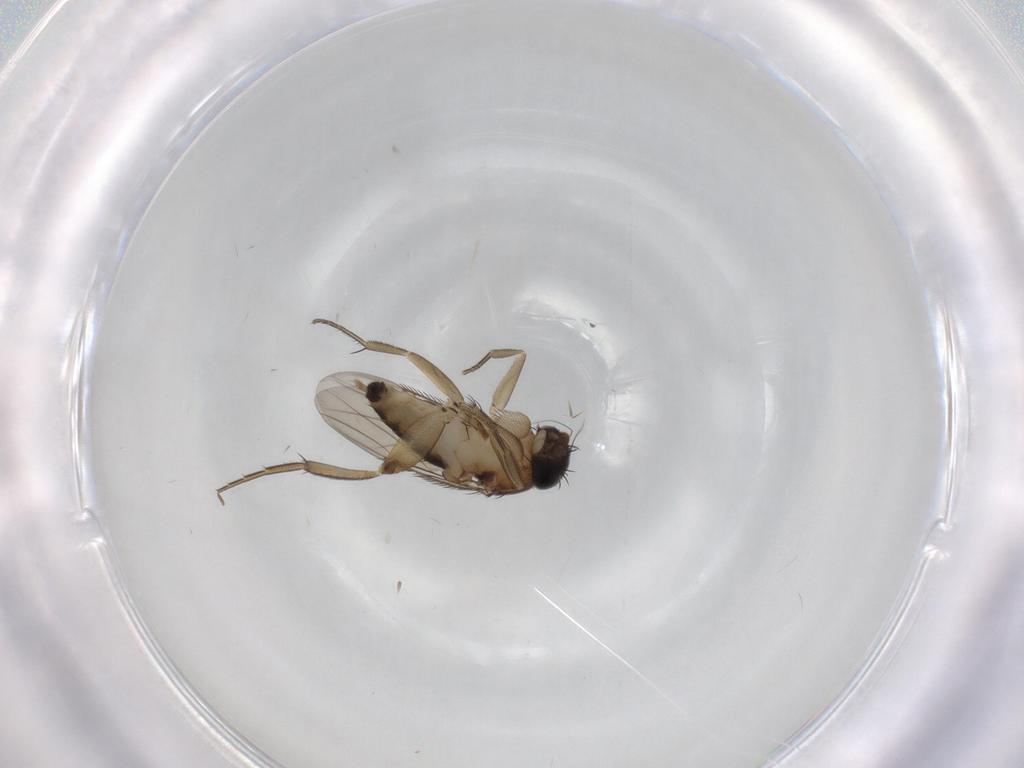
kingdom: Animalia
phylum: Arthropoda
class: Insecta
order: Diptera
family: Phoridae
